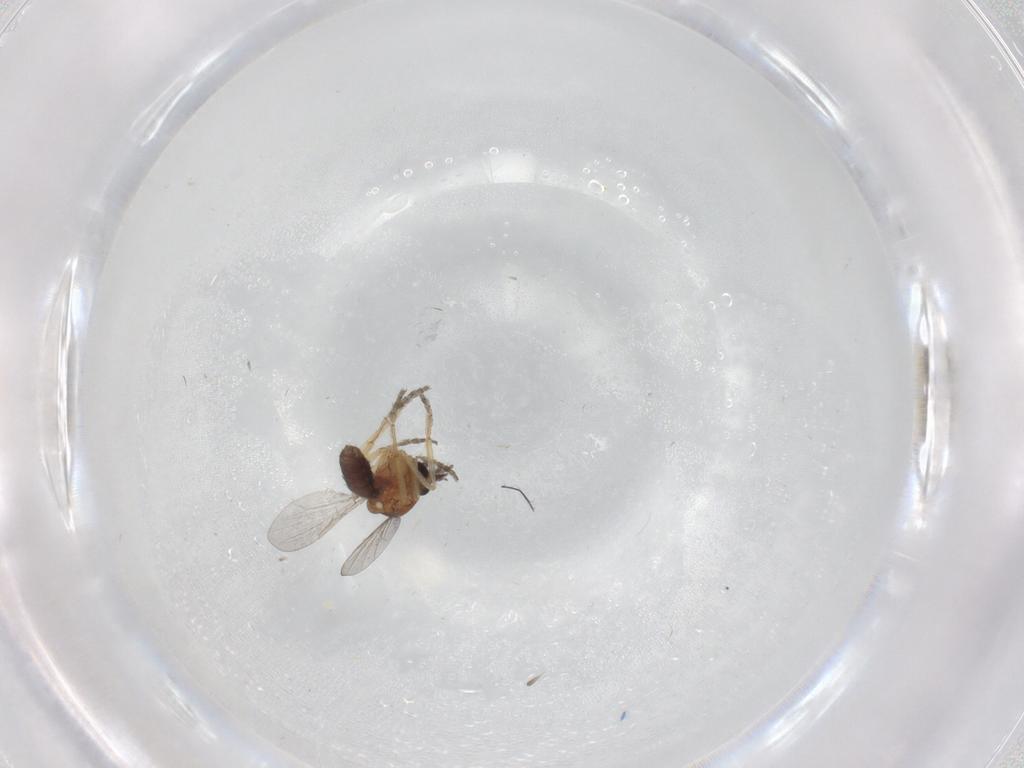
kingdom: Animalia
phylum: Arthropoda
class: Insecta
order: Diptera
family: Ceratopogonidae
